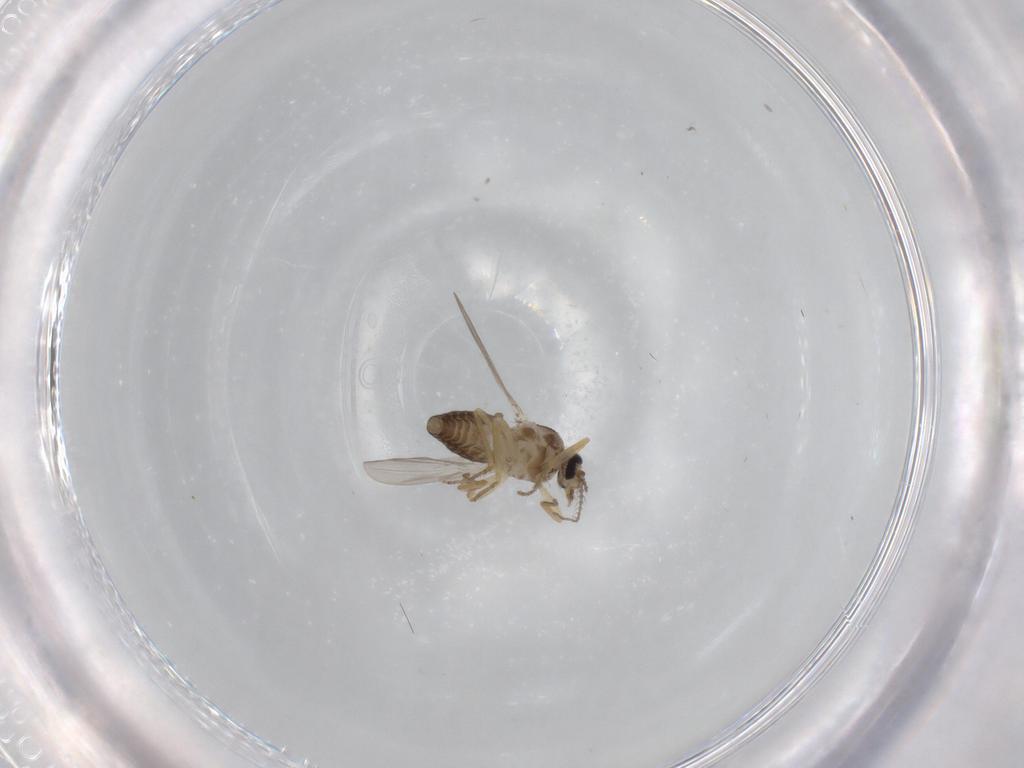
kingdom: Animalia
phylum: Arthropoda
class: Insecta
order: Diptera
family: Ceratopogonidae
